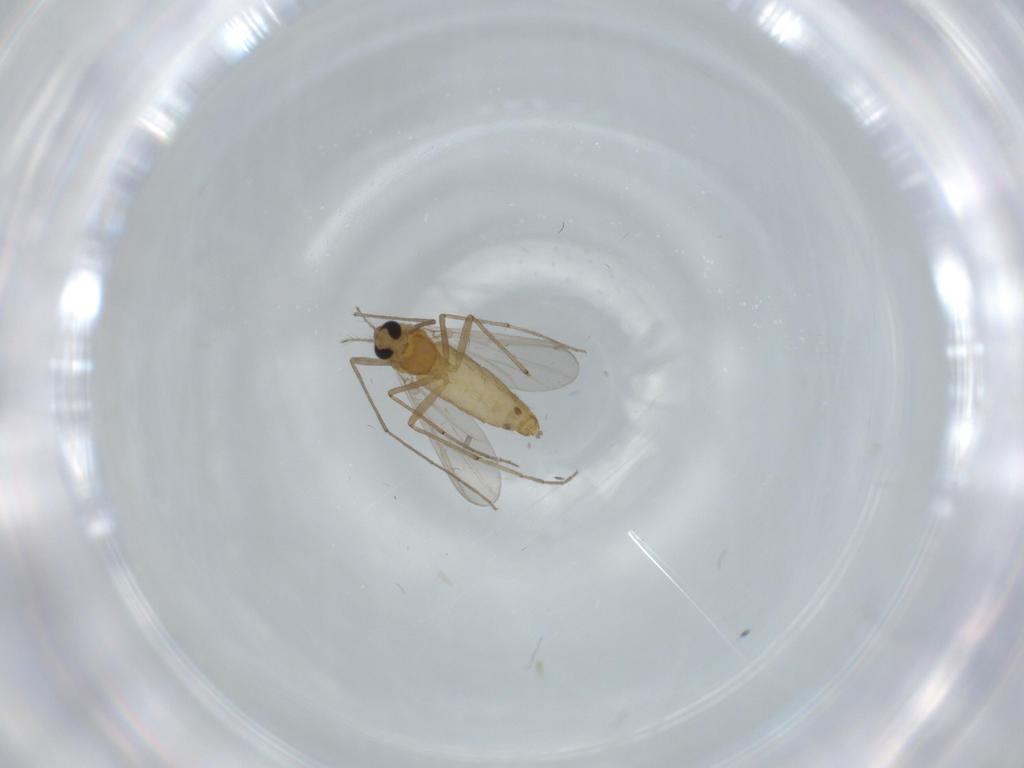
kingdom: Animalia
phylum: Arthropoda
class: Insecta
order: Diptera
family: Chironomidae
